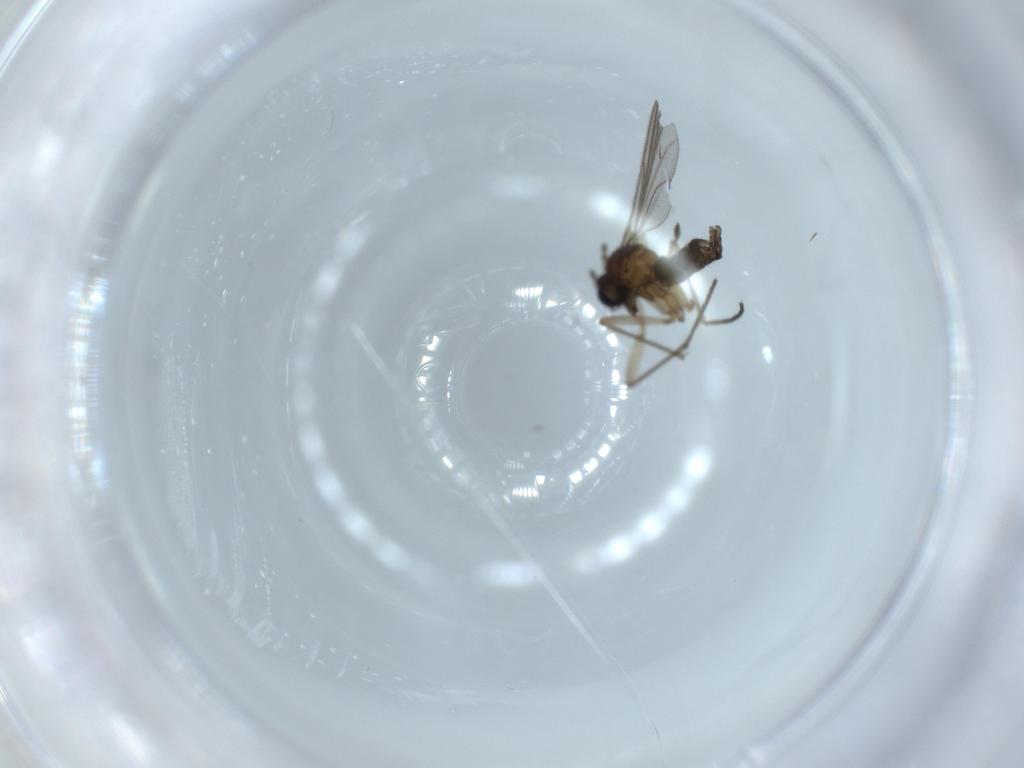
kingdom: Animalia
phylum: Arthropoda
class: Insecta
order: Diptera
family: Sciaridae
